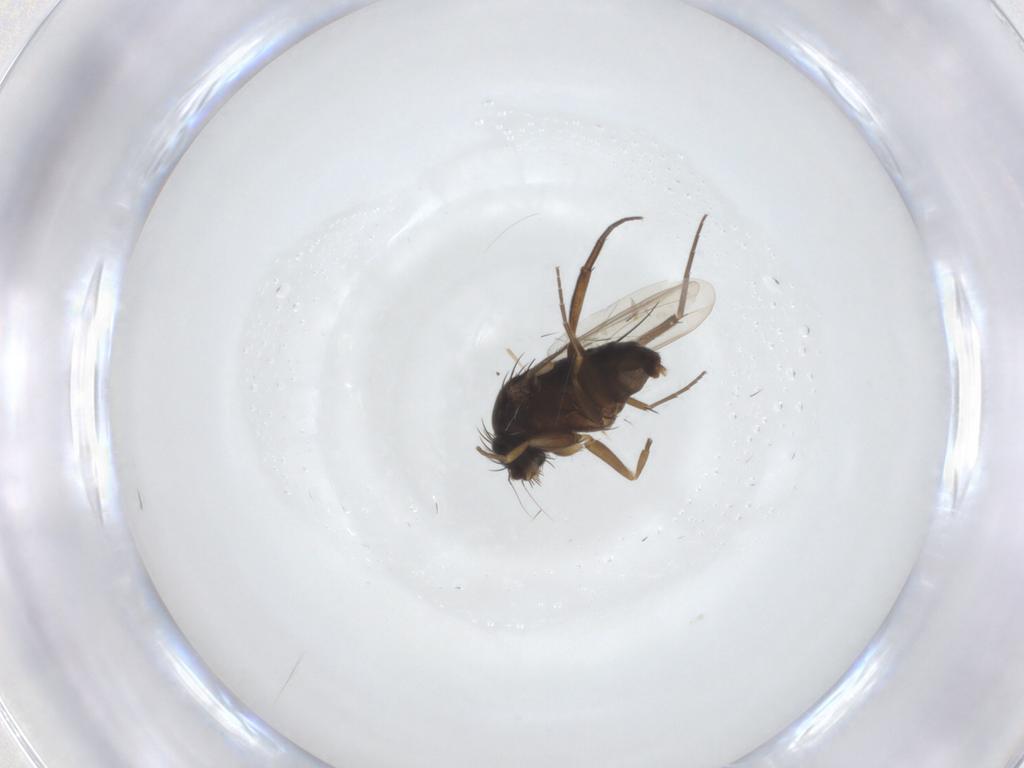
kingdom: Animalia
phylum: Arthropoda
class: Insecta
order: Diptera
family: Phoridae
